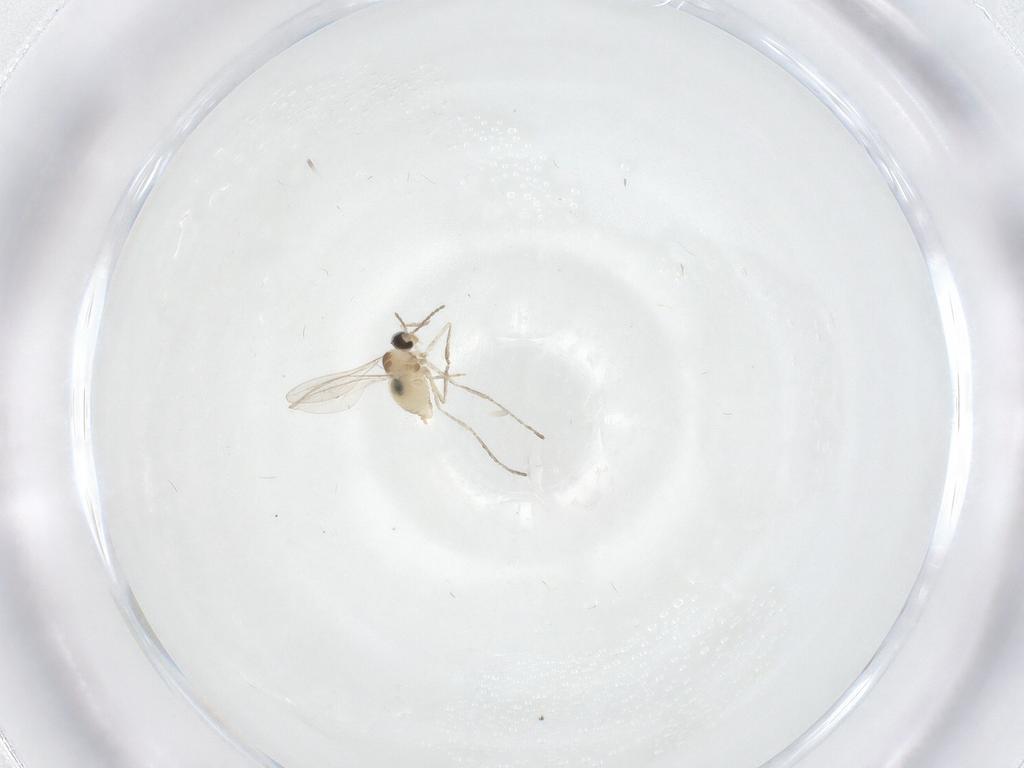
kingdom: Animalia
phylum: Arthropoda
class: Insecta
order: Diptera
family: Cecidomyiidae
